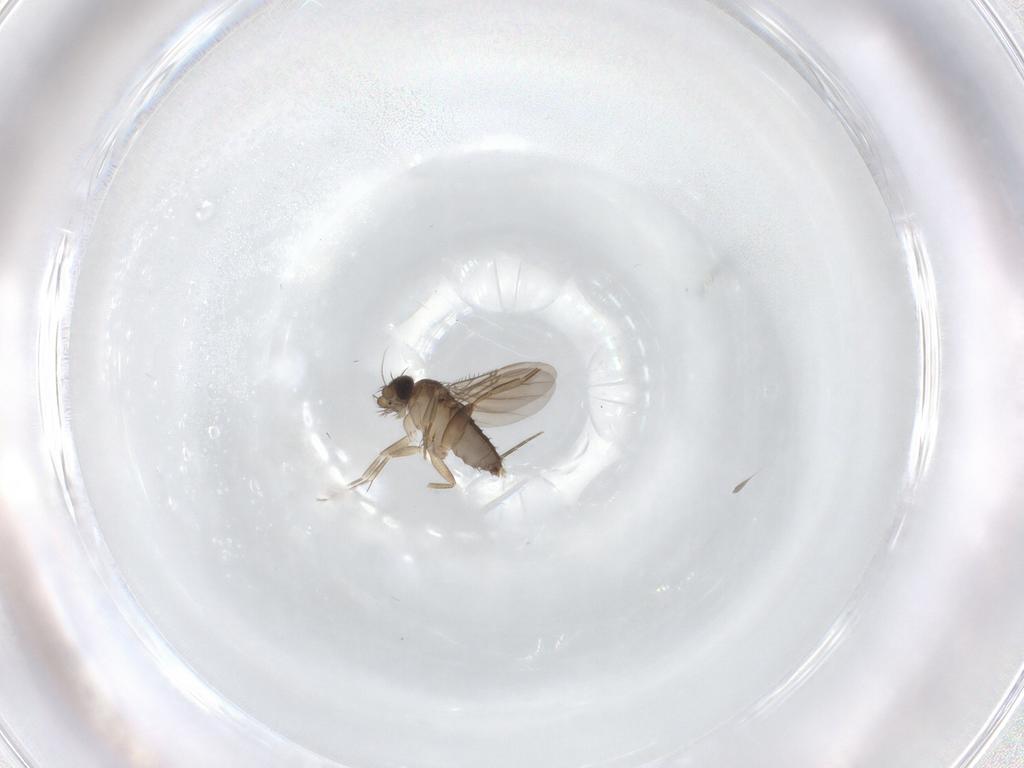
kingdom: Animalia
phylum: Arthropoda
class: Insecta
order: Diptera
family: Phoridae
